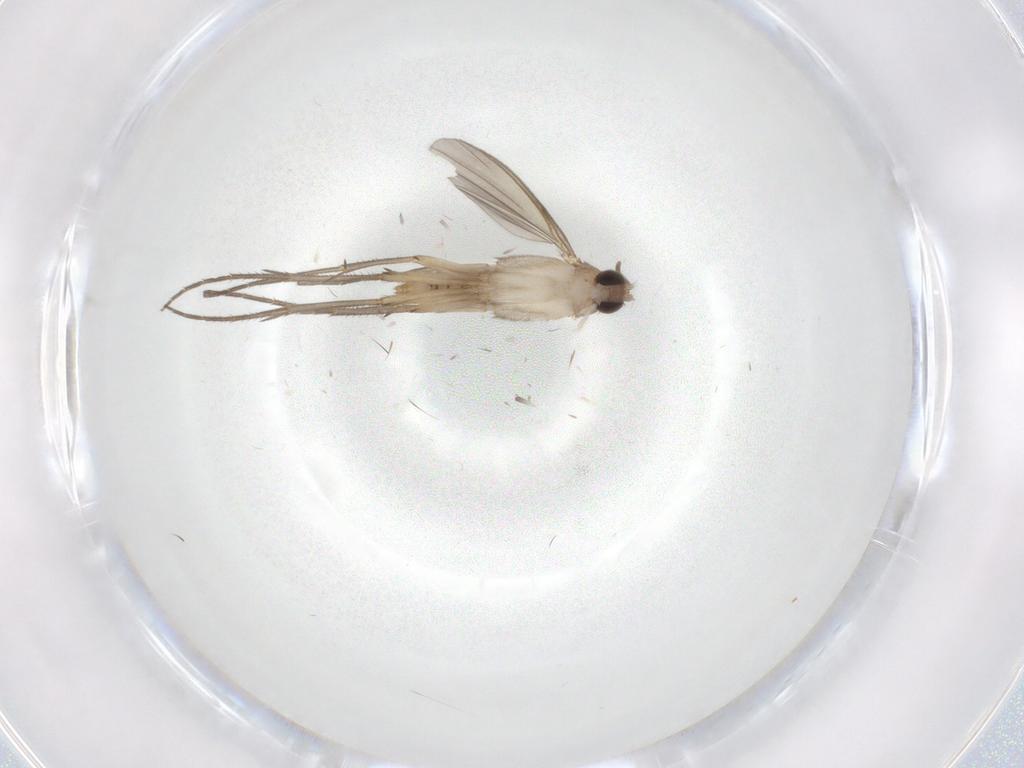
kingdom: Animalia
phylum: Arthropoda
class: Insecta
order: Diptera
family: Mycetophilidae
